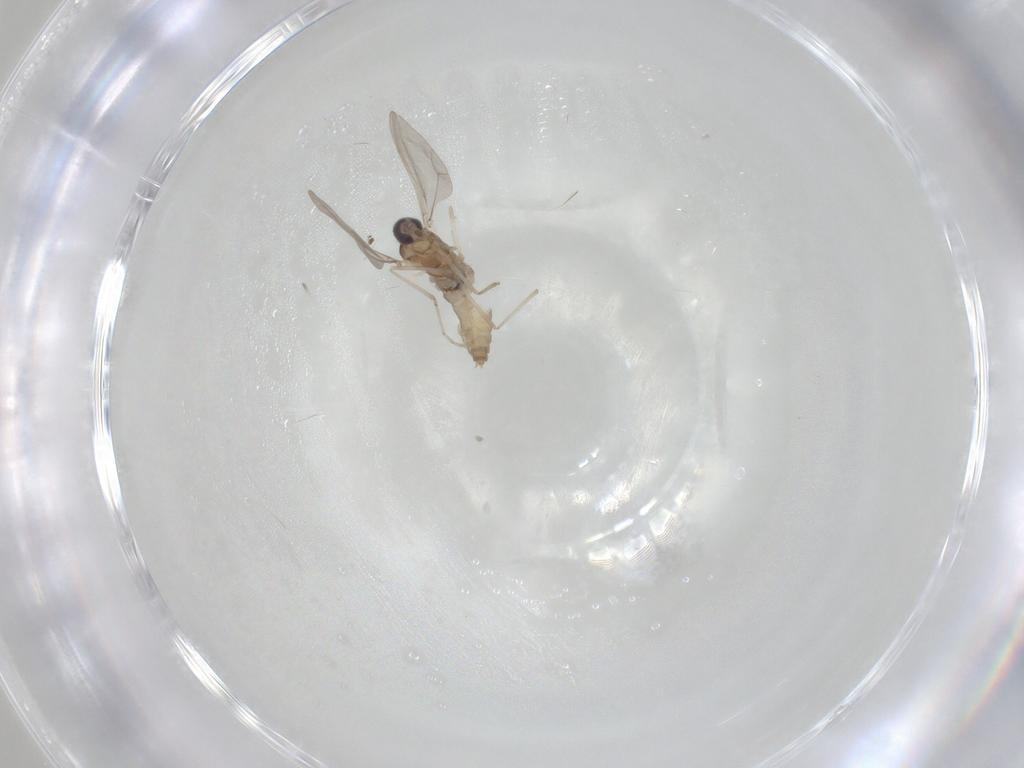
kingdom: Animalia
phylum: Arthropoda
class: Insecta
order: Diptera
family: Cecidomyiidae
